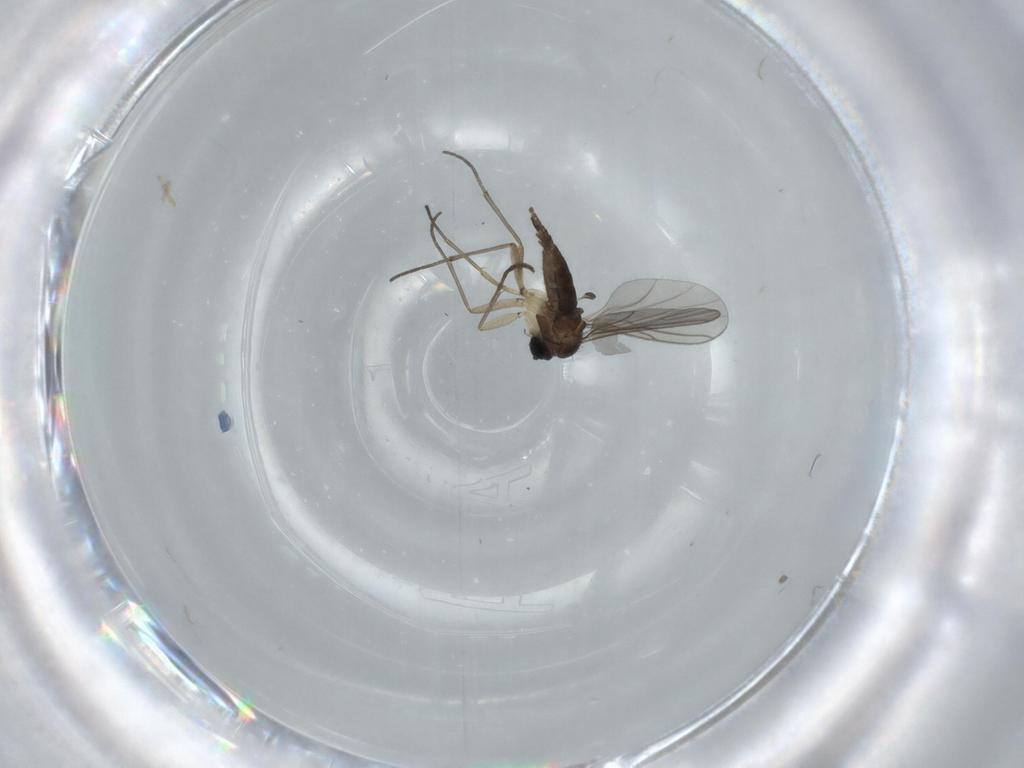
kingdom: Animalia
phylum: Arthropoda
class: Insecta
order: Diptera
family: Sciaridae
